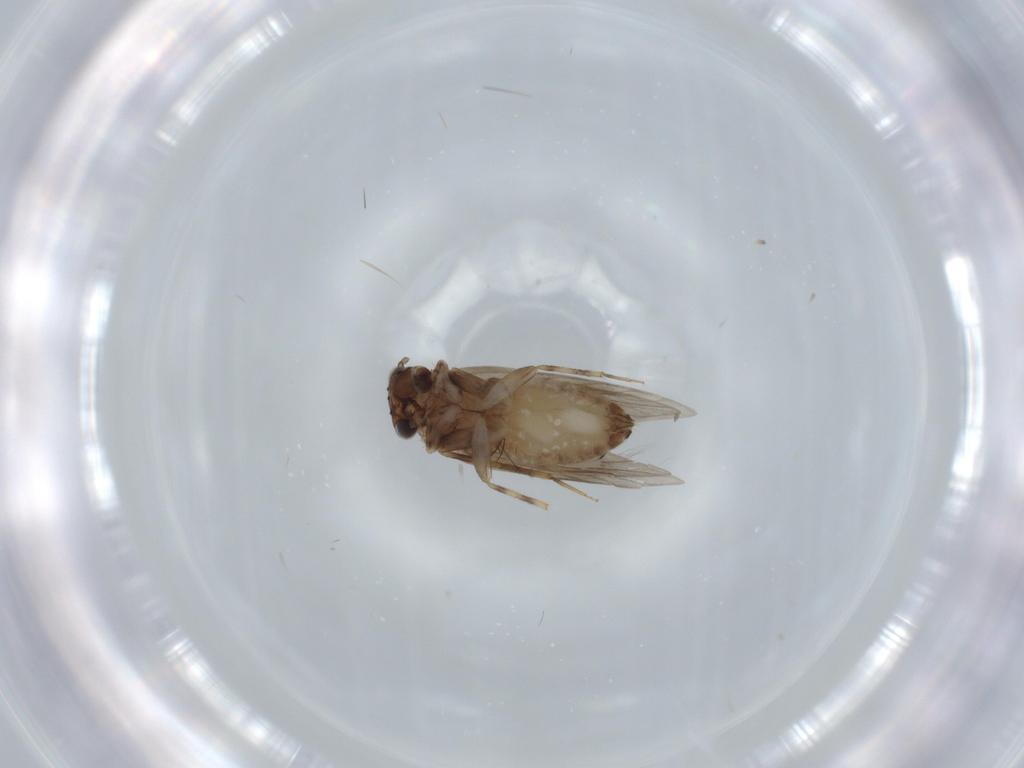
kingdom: Animalia
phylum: Arthropoda
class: Insecta
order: Psocodea
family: Lepidopsocidae
